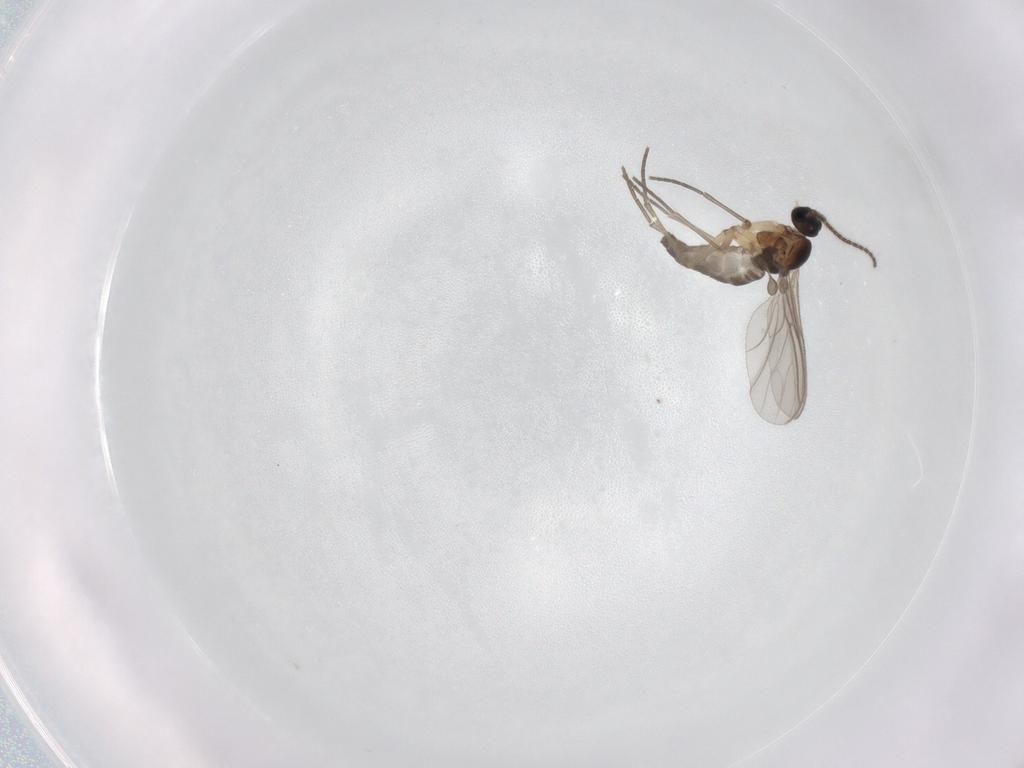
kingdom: Animalia
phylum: Arthropoda
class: Insecta
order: Diptera
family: Sciaridae
